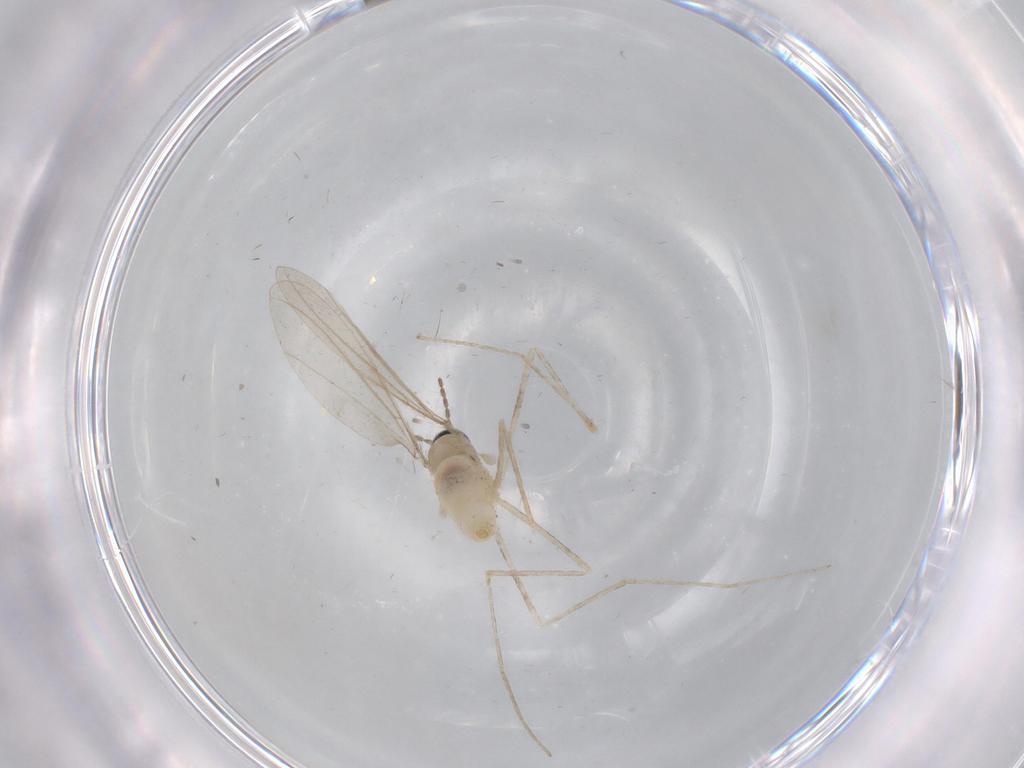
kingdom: Animalia
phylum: Arthropoda
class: Insecta
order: Diptera
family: Cecidomyiidae
